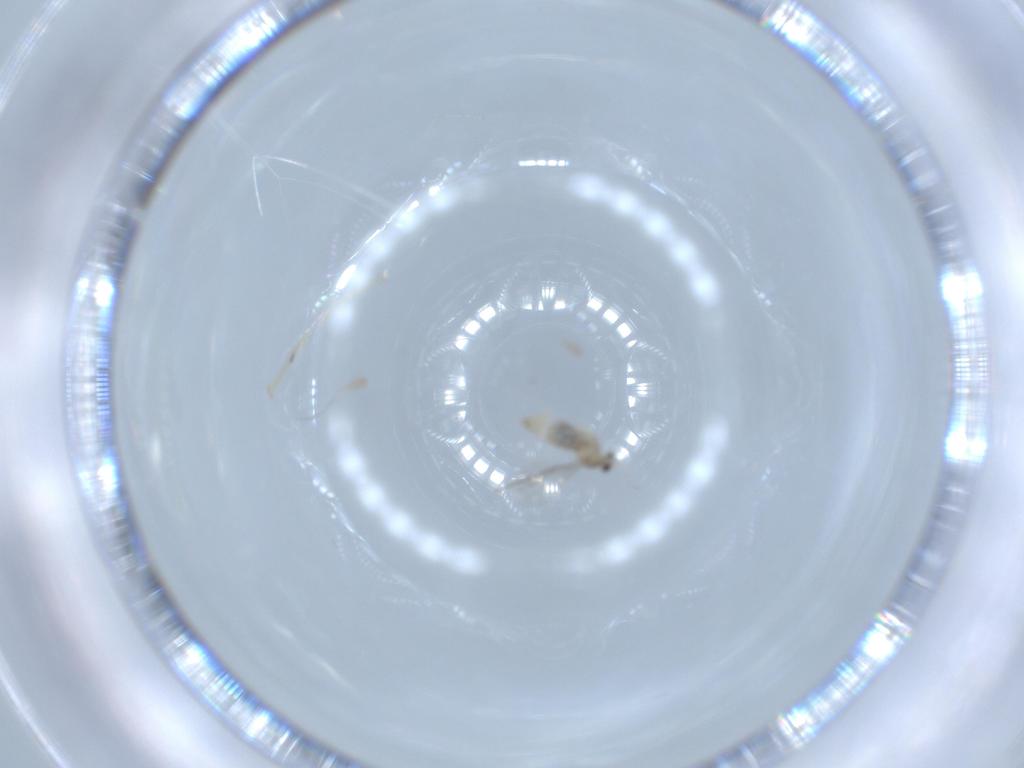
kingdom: Animalia
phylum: Arthropoda
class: Insecta
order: Diptera
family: Cecidomyiidae
